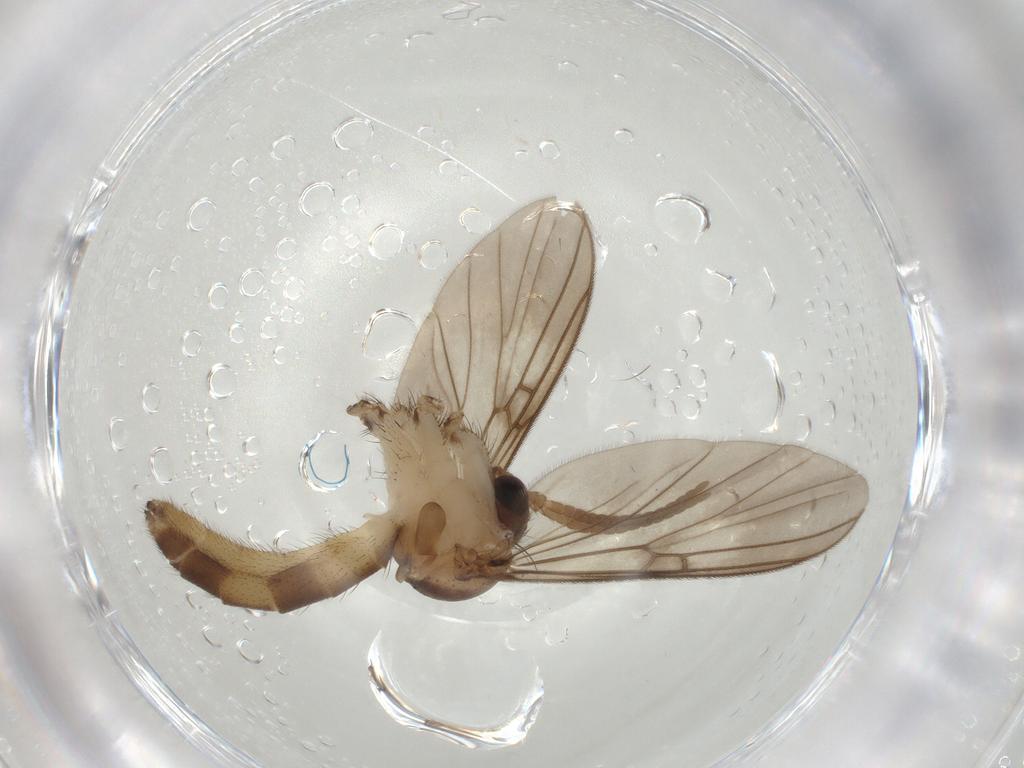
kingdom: Animalia
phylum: Arthropoda
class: Insecta
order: Diptera
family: Mycetophilidae
